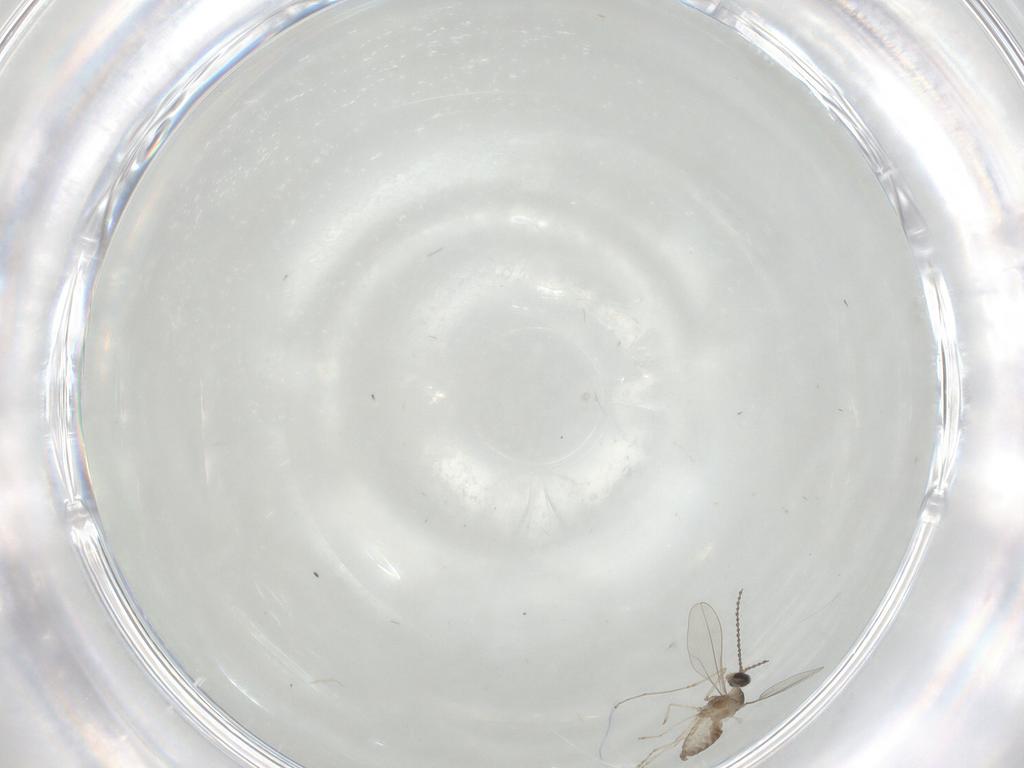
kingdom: Animalia
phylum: Arthropoda
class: Insecta
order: Diptera
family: Cecidomyiidae
